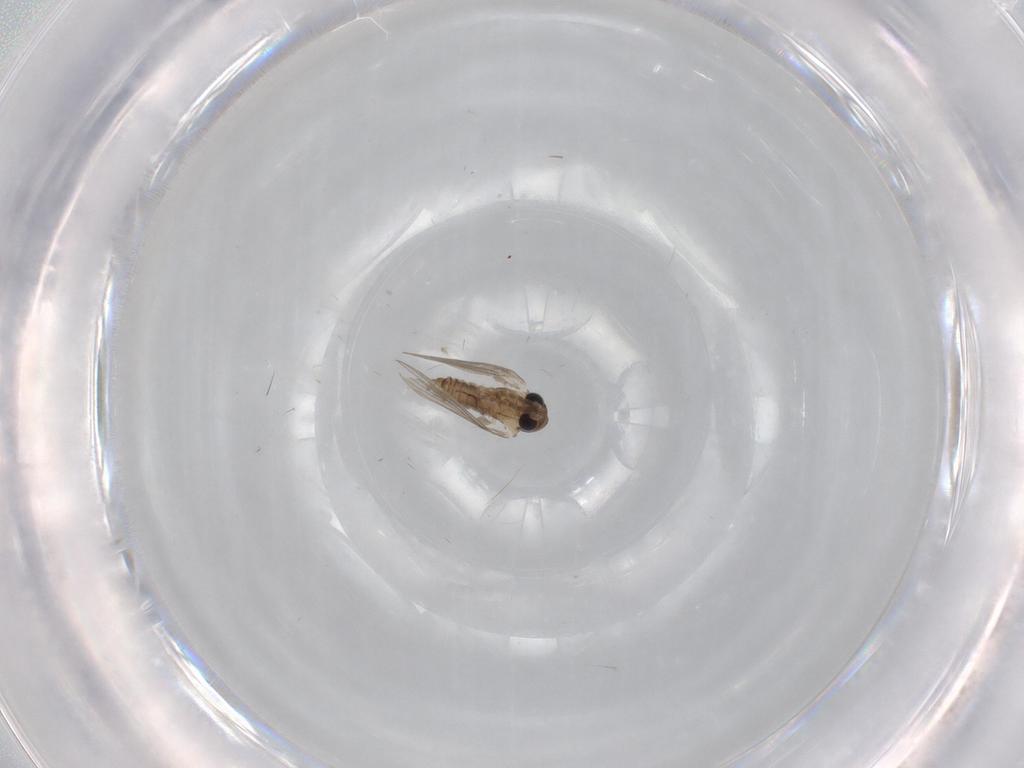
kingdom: Animalia
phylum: Arthropoda
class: Insecta
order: Diptera
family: Psychodidae
